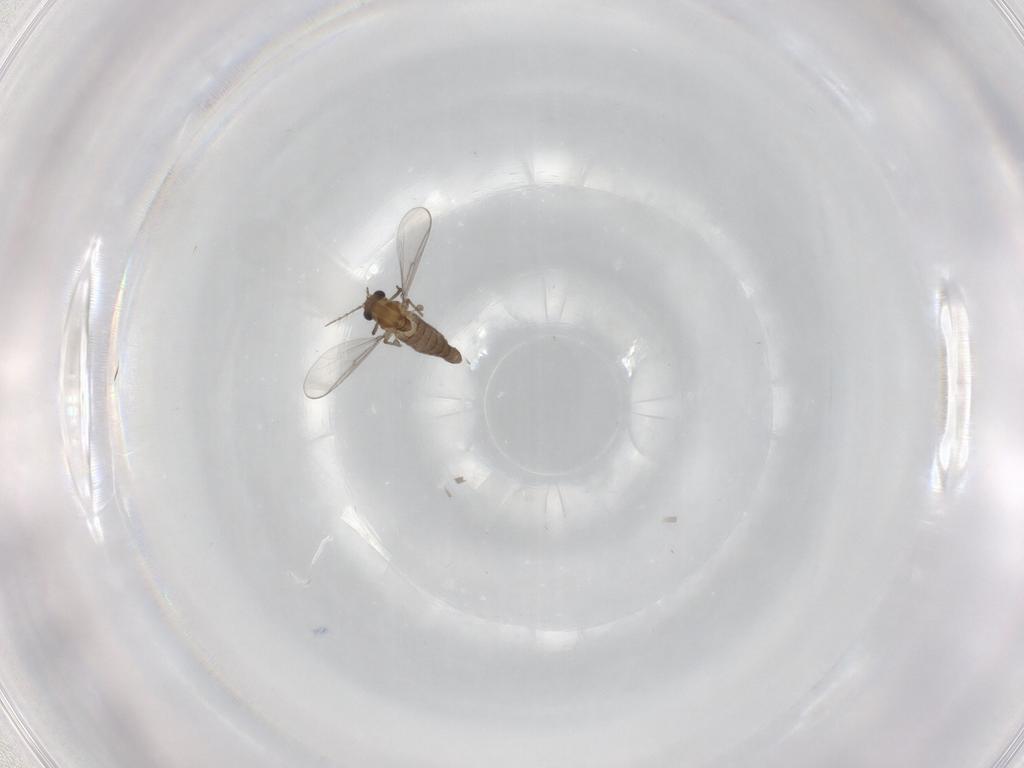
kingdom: Animalia
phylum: Arthropoda
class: Insecta
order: Diptera
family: Chironomidae
